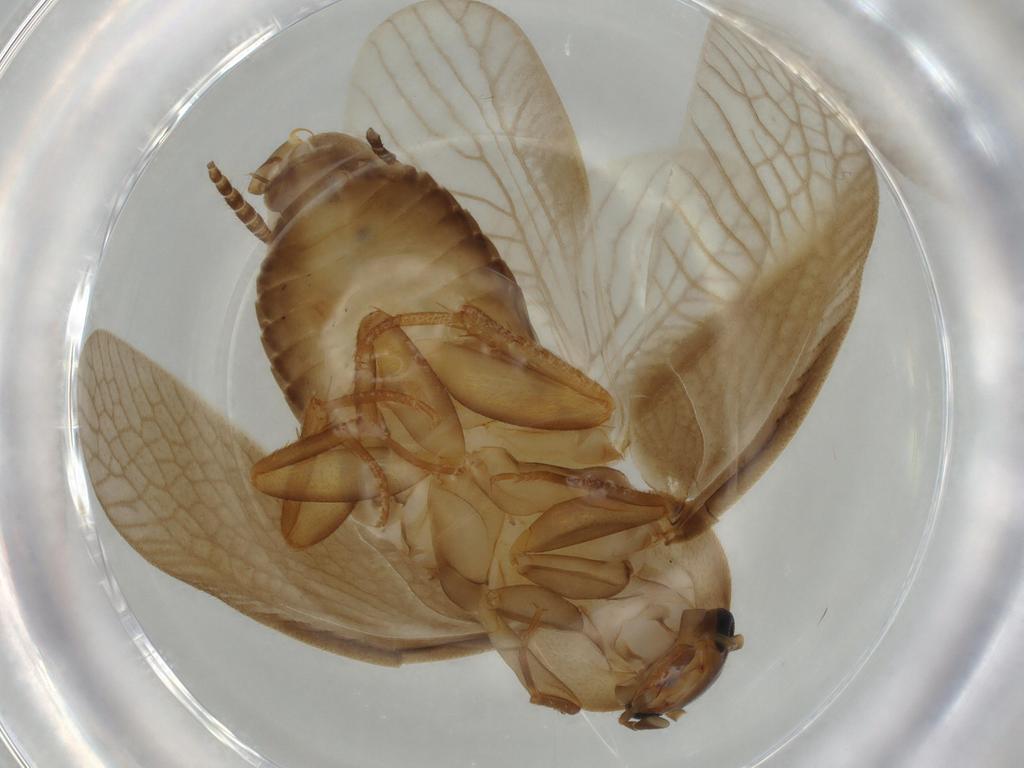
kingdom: Animalia
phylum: Arthropoda
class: Insecta
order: Blattodea
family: Ectobiidae
